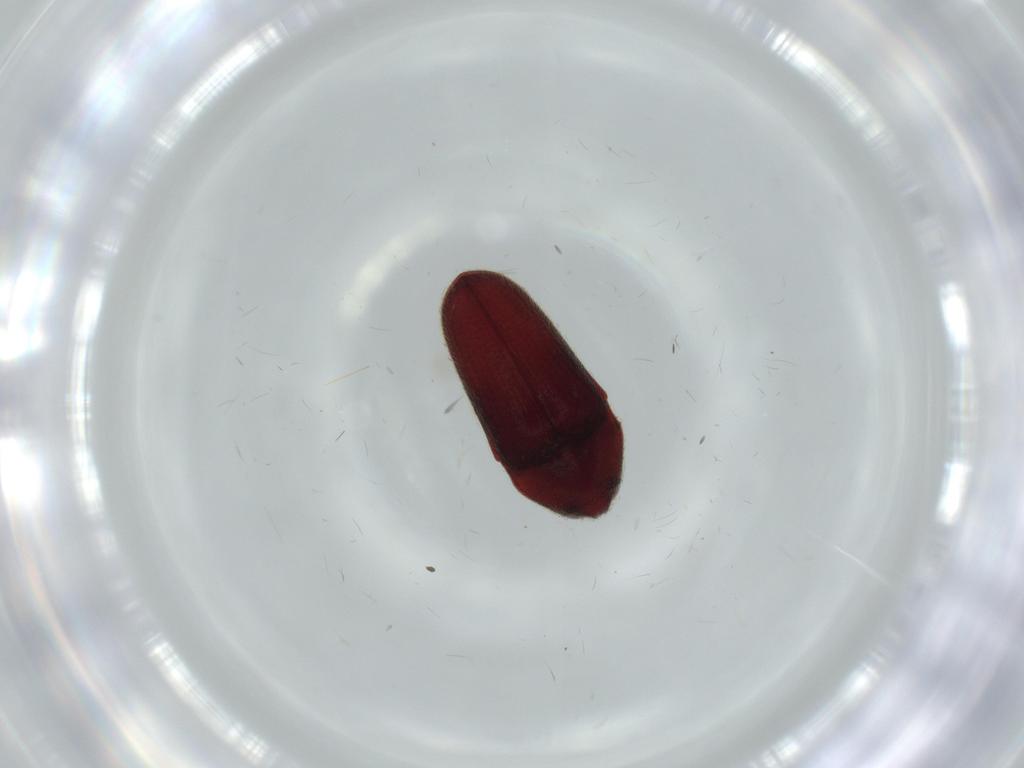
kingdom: Animalia
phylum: Arthropoda
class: Insecta
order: Coleoptera
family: Throscidae
